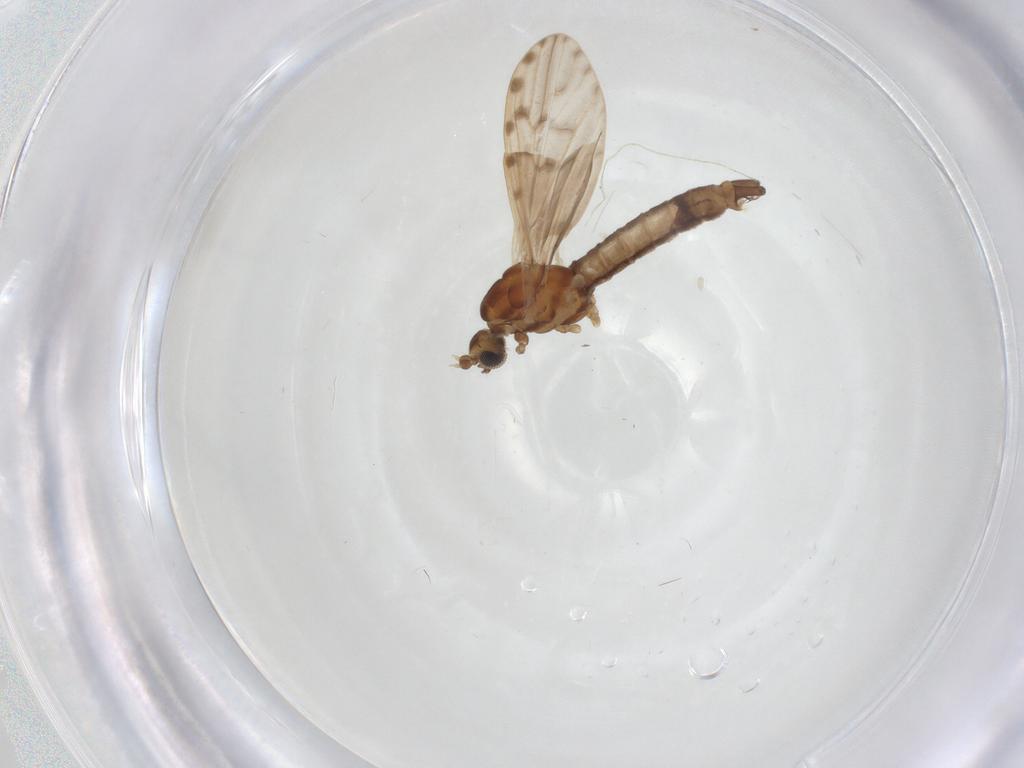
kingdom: Animalia
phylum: Arthropoda
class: Insecta
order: Diptera
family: Limoniidae
